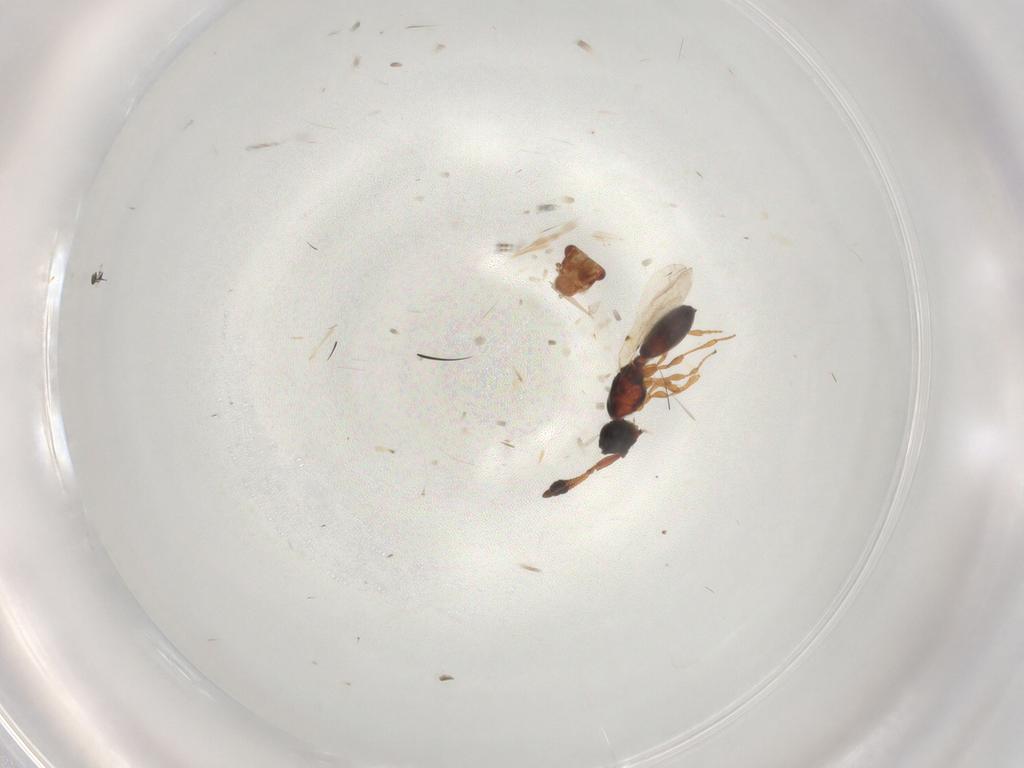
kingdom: Animalia
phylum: Arthropoda
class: Insecta
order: Hymenoptera
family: Diapriidae
